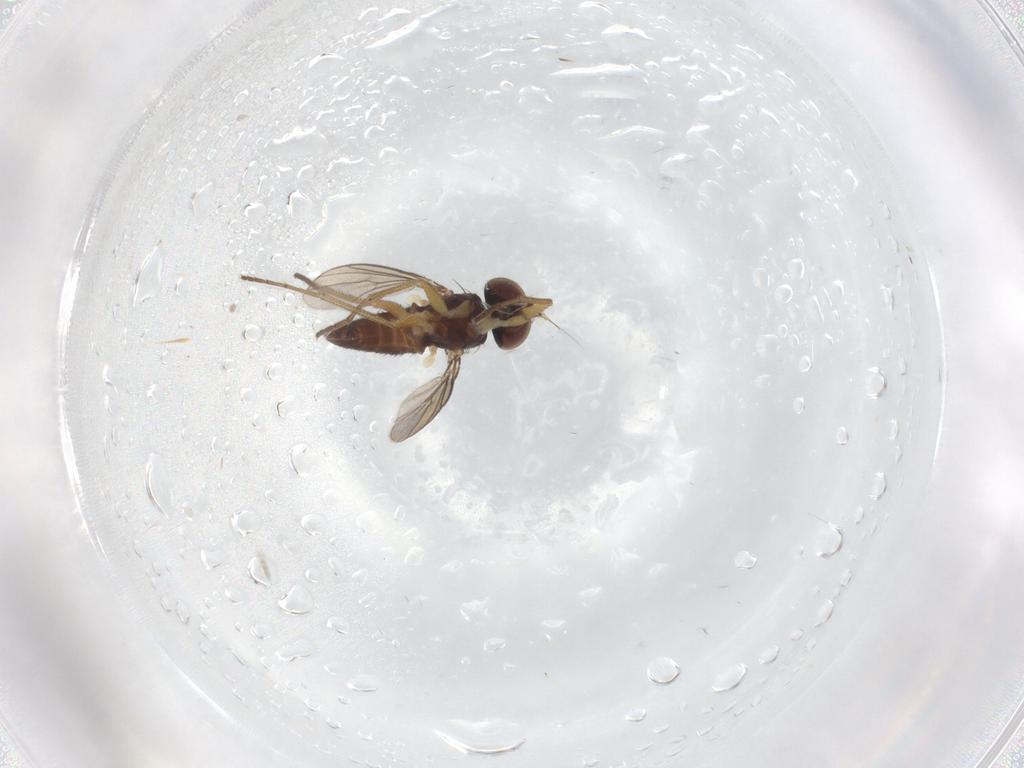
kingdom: Animalia
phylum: Arthropoda
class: Insecta
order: Diptera
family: Dolichopodidae
